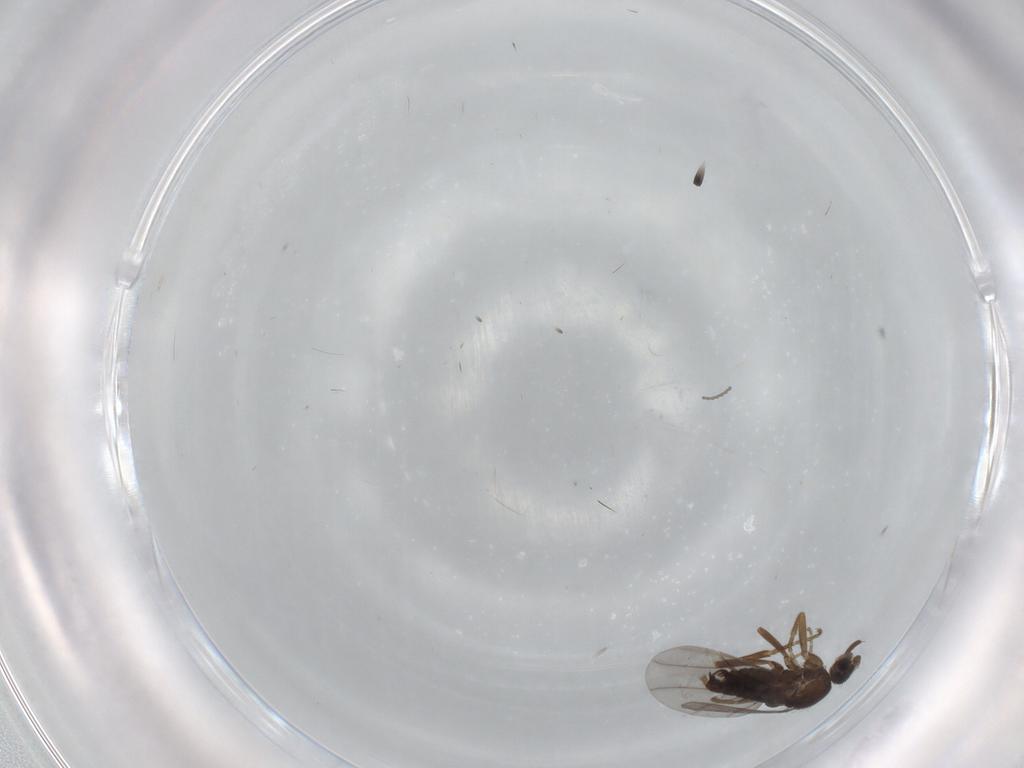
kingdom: Animalia
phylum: Arthropoda
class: Insecta
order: Diptera
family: Phoridae
